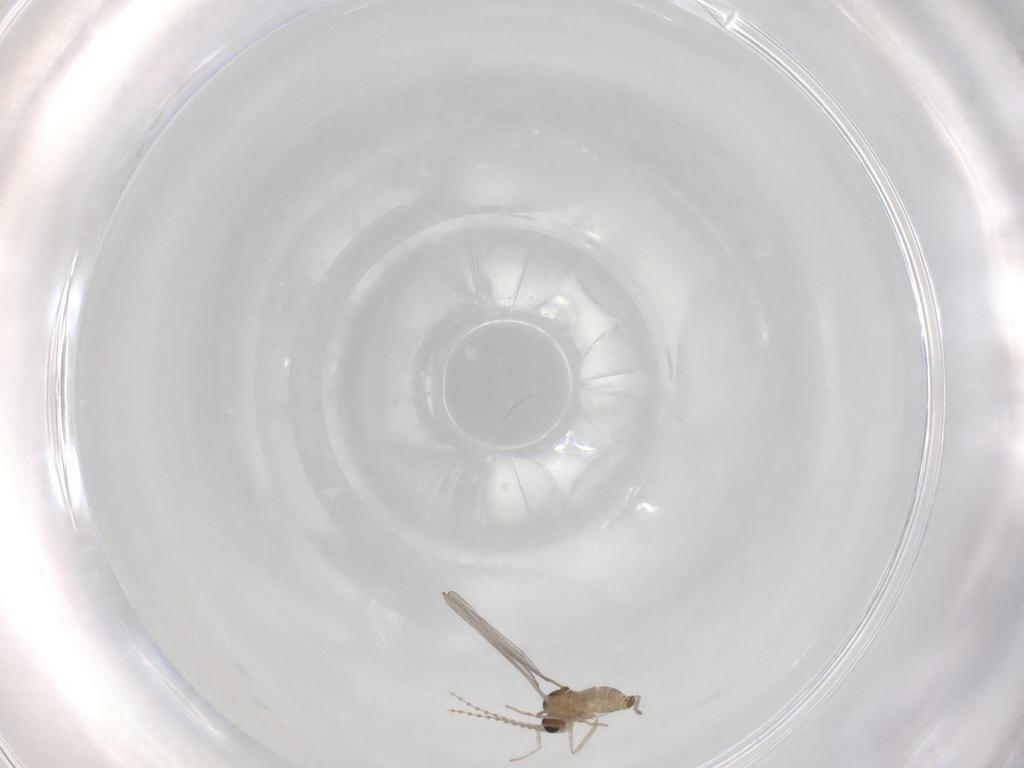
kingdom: Animalia
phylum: Arthropoda
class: Insecta
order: Diptera
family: Cecidomyiidae
